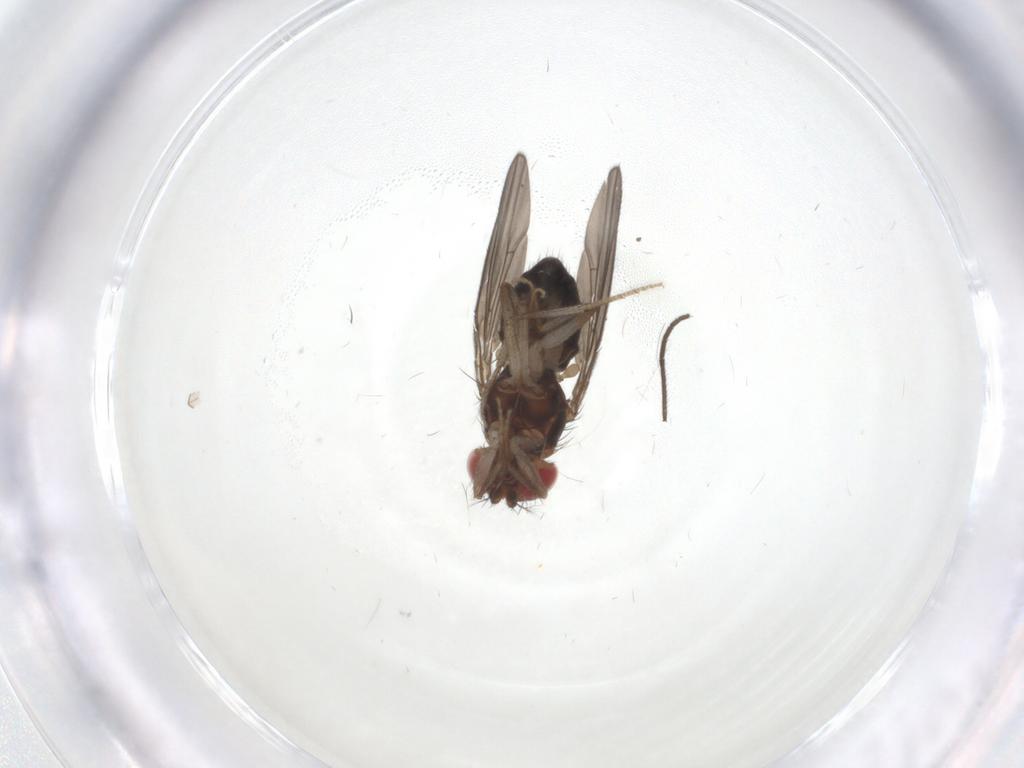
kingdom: Animalia
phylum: Arthropoda
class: Insecta
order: Diptera
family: Drosophilidae
